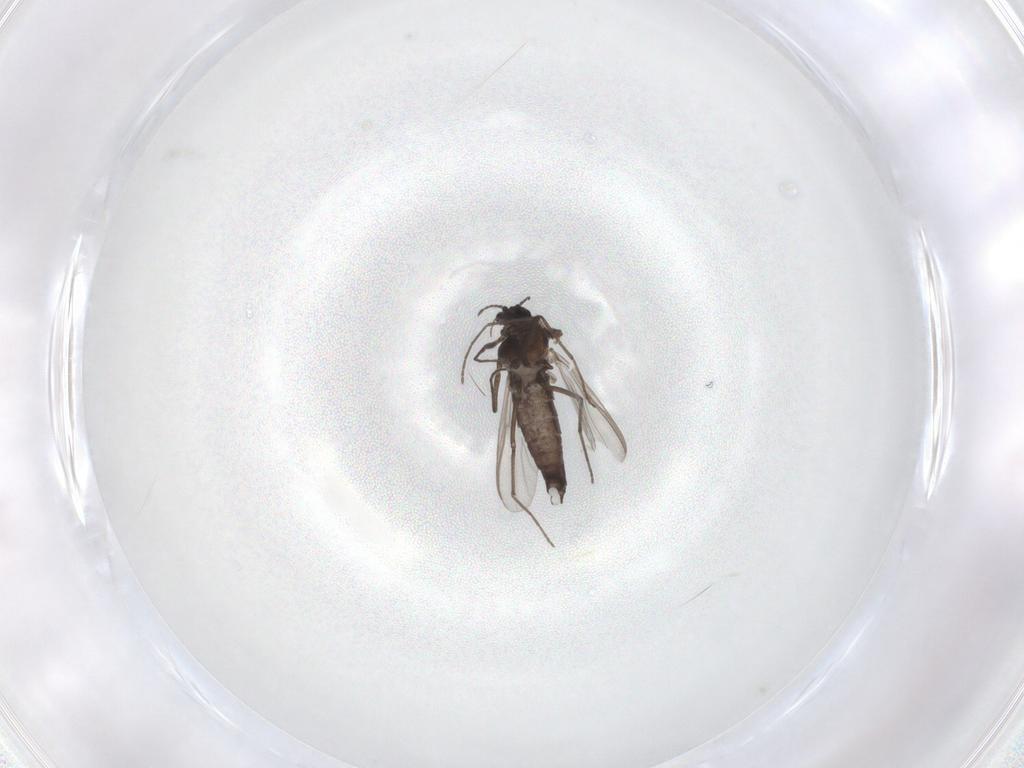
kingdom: Animalia
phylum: Arthropoda
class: Insecta
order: Diptera
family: Chironomidae
